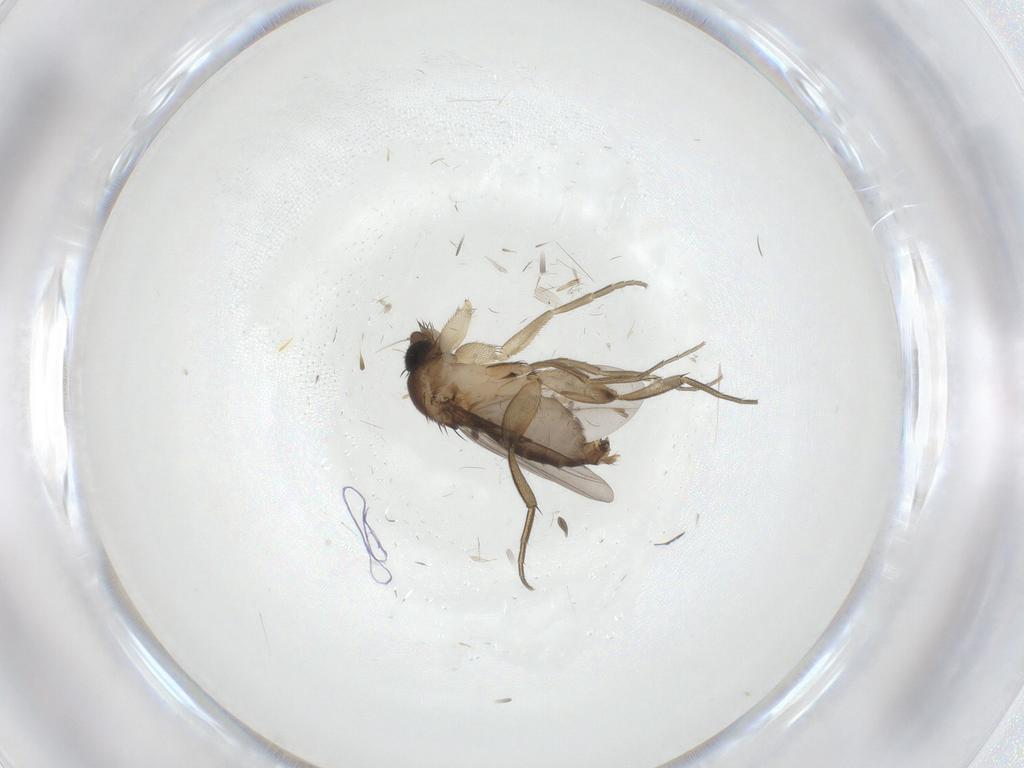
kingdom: Animalia
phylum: Arthropoda
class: Insecta
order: Diptera
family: Phoridae
